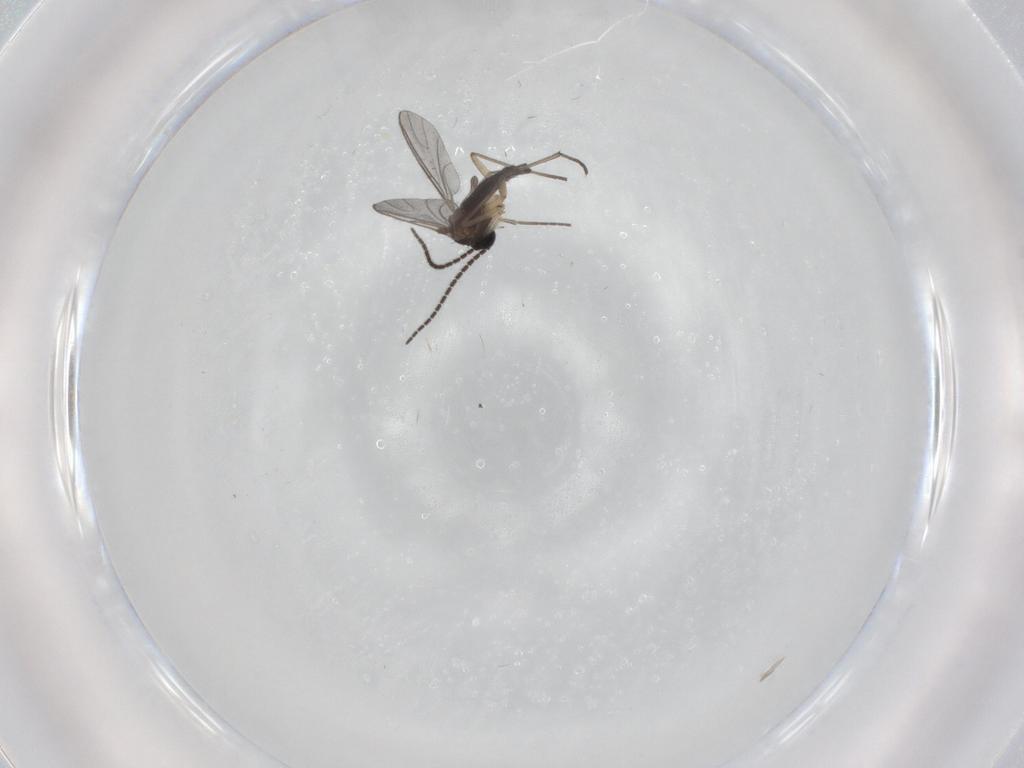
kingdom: Animalia
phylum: Arthropoda
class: Insecta
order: Diptera
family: Sciaridae
